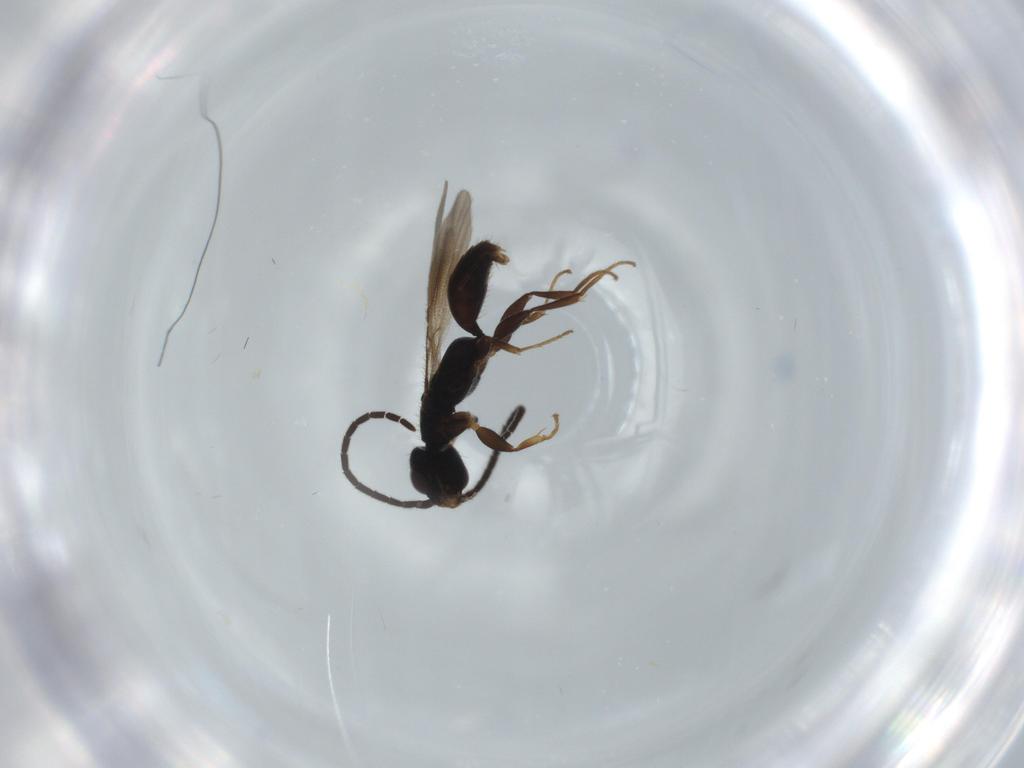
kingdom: Animalia
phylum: Arthropoda
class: Insecta
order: Hymenoptera
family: Bethylidae
